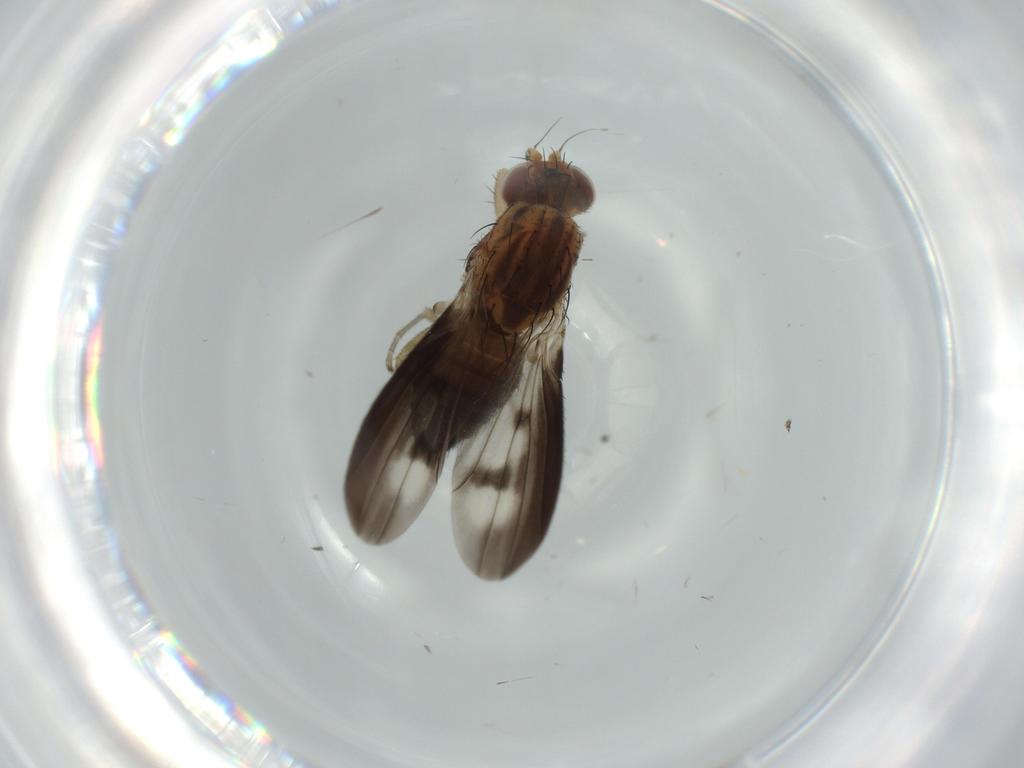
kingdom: Animalia
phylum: Arthropoda
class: Insecta
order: Diptera
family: Heleomyzidae
